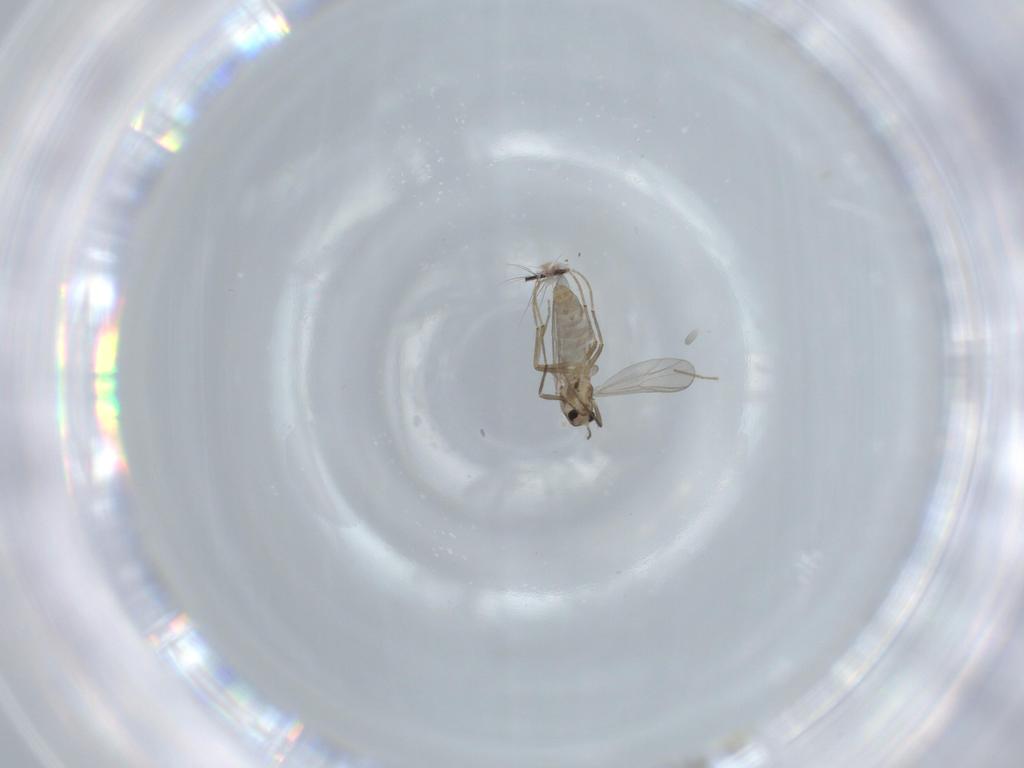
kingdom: Animalia
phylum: Arthropoda
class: Insecta
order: Diptera
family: Chironomidae
